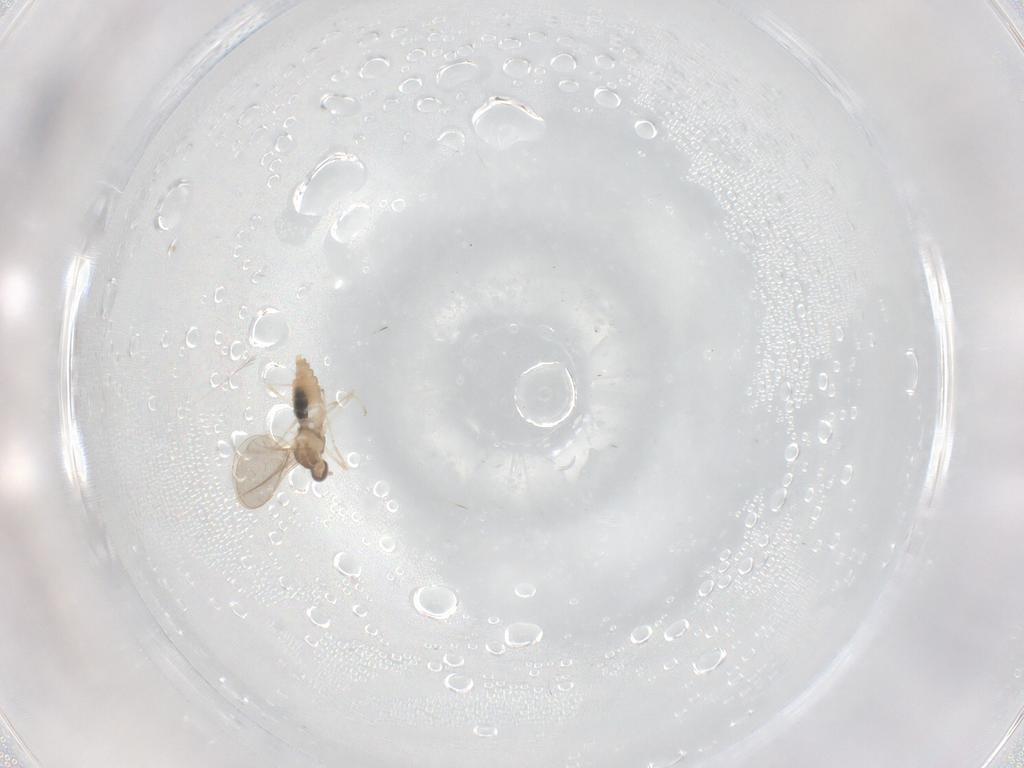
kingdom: Animalia
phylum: Arthropoda
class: Insecta
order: Diptera
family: Cecidomyiidae
